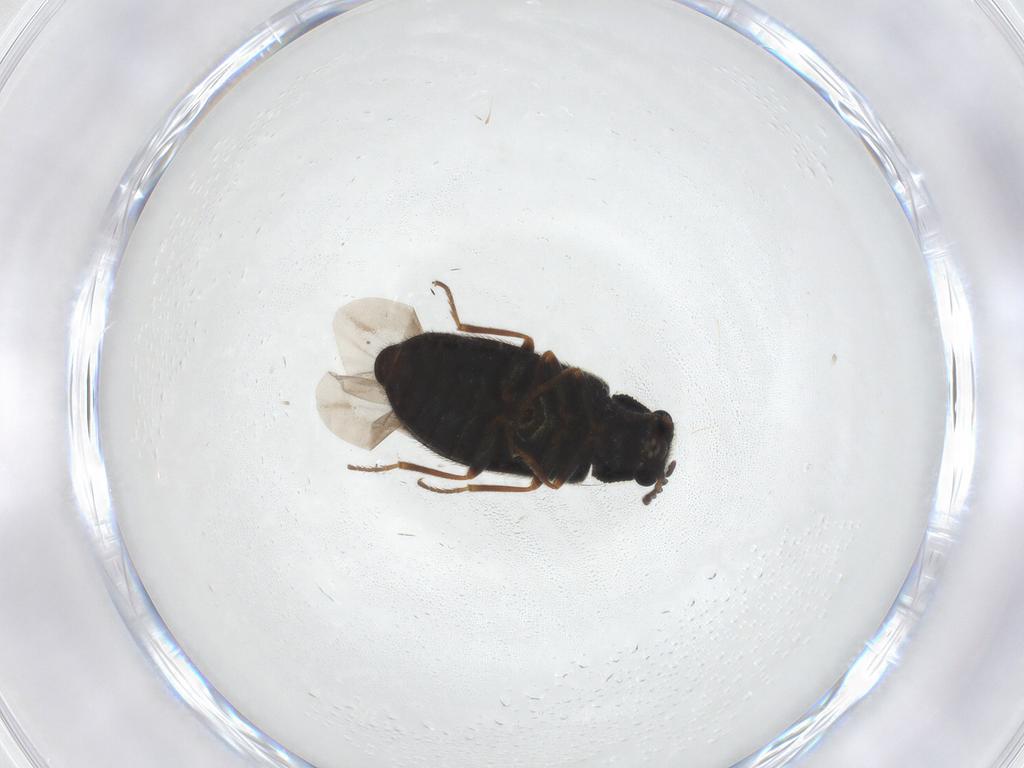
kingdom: Animalia
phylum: Arthropoda
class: Insecta
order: Coleoptera
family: Melyridae
